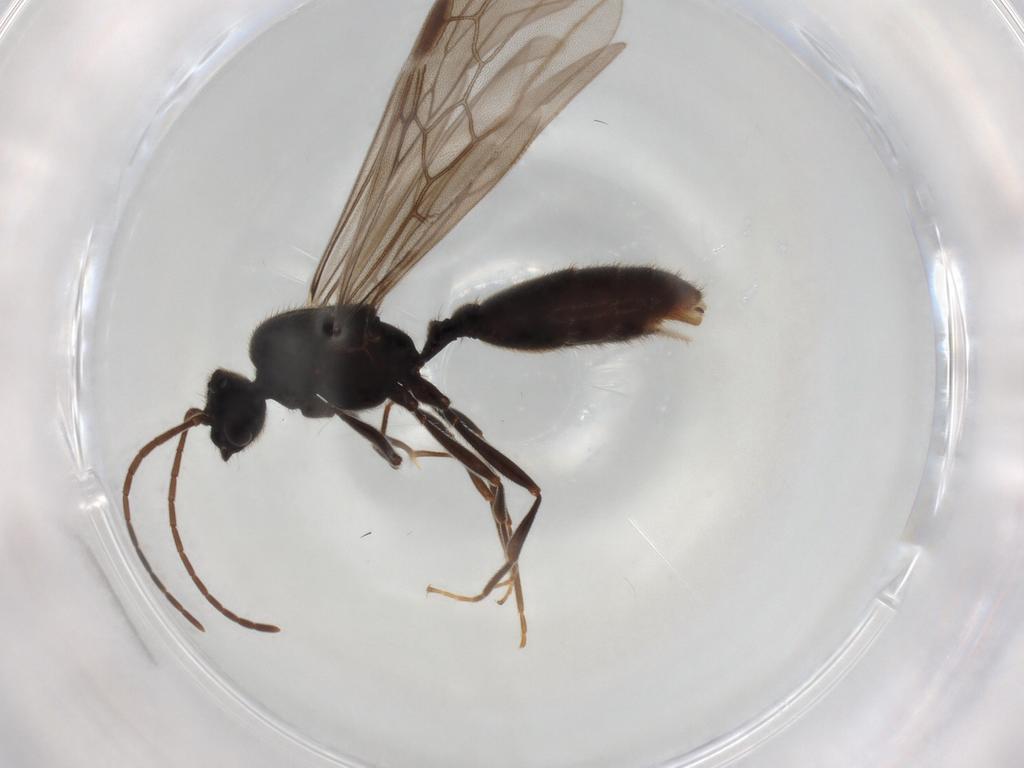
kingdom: Animalia
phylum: Arthropoda
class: Insecta
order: Hymenoptera
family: Formicidae
